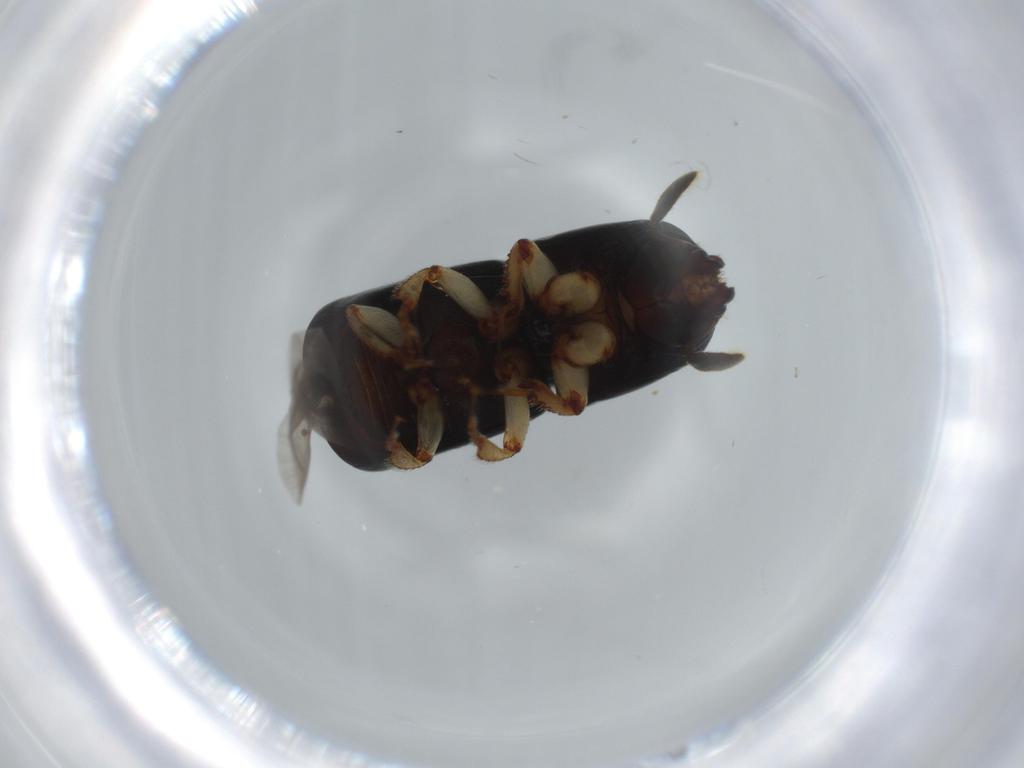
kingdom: Animalia
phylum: Arthropoda
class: Insecta
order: Coleoptera
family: Curculionidae
